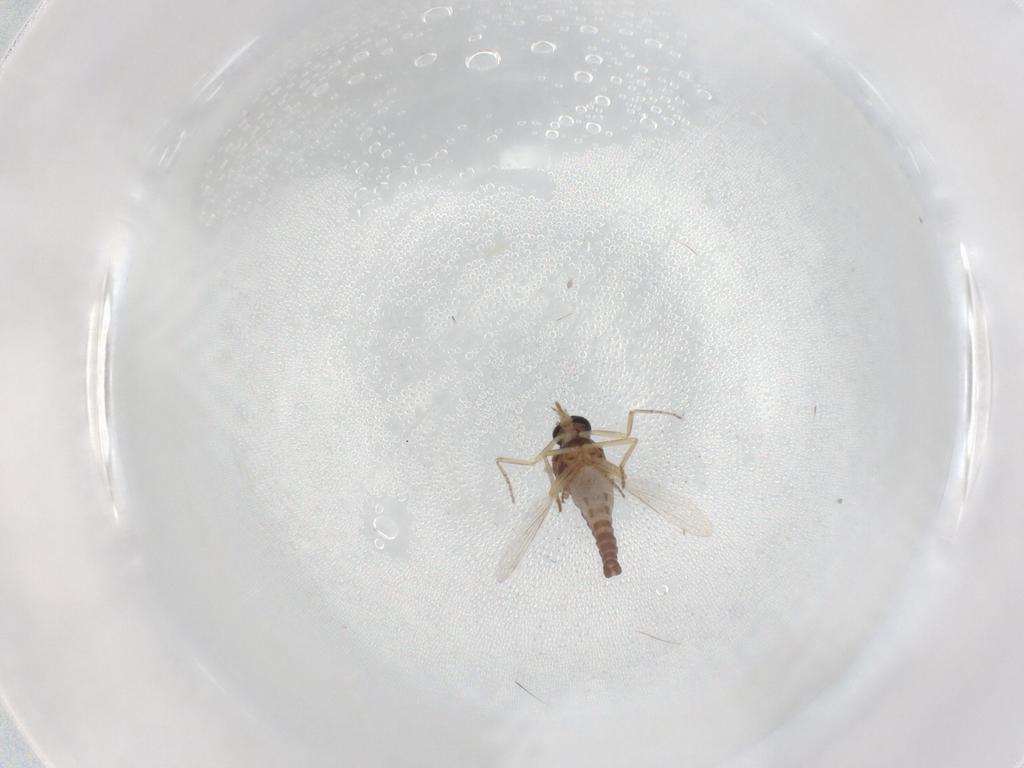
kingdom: Animalia
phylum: Arthropoda
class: Insecta
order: Diptera
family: Ceratopogonidae
